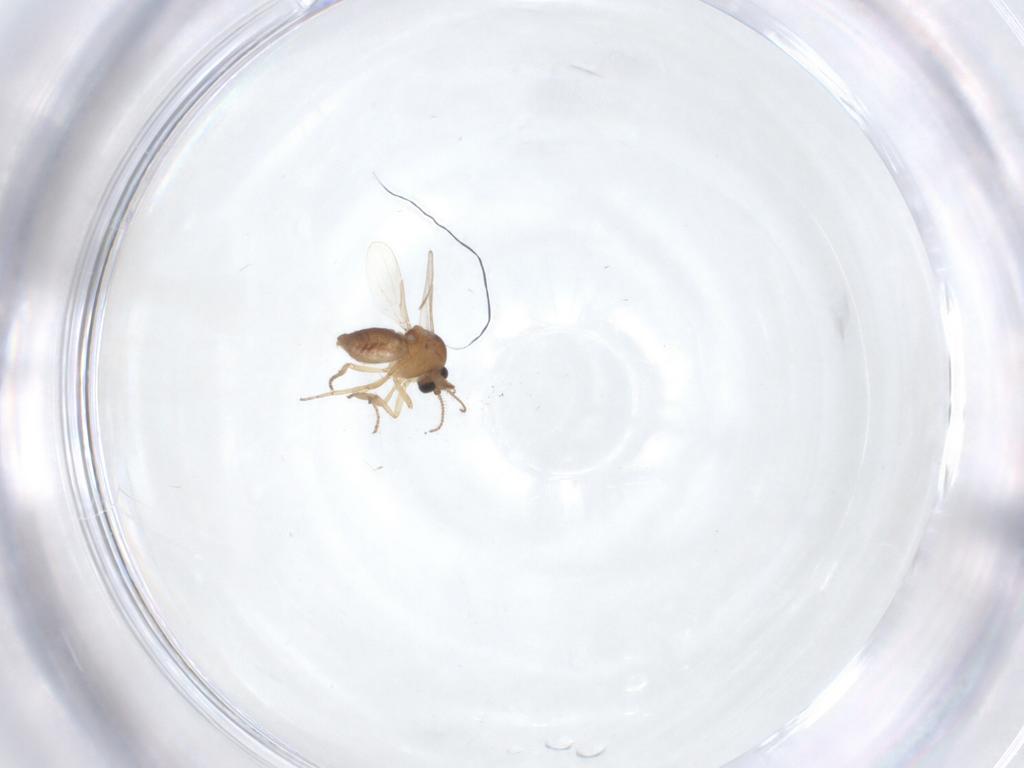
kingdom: Animalia
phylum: Arthropoda
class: Insecta
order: Diptera
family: Ceratopogonidae
